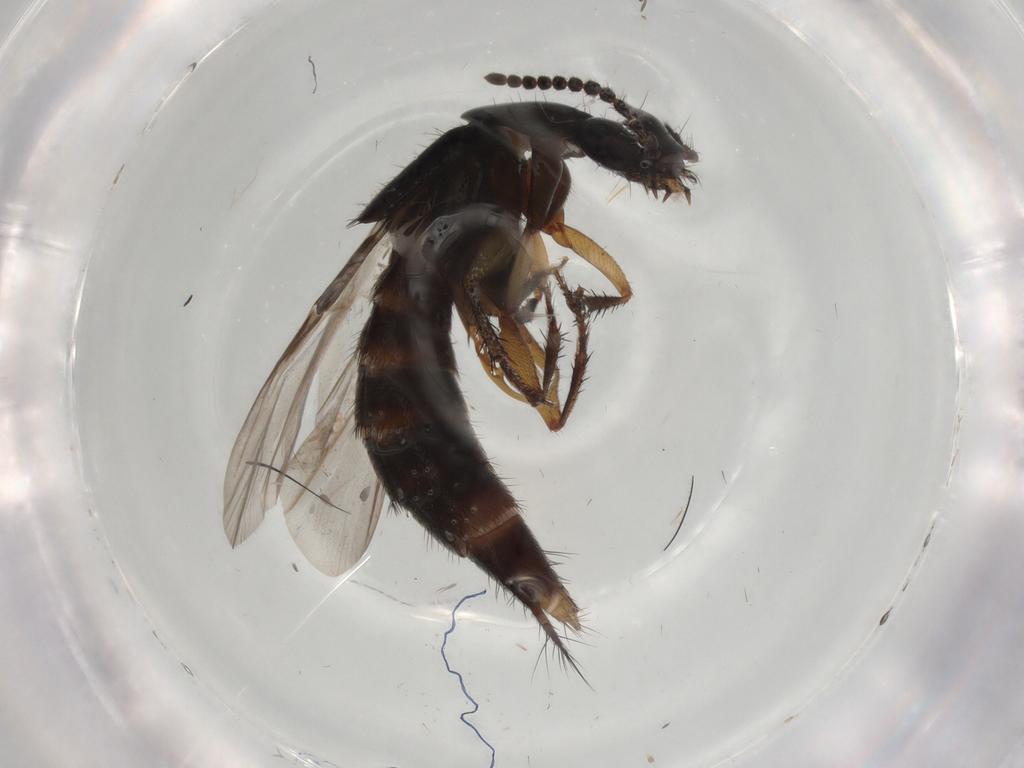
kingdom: Animalia
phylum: Arthropoda
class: Insecta
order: Coleoptera
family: Staphylinidae
